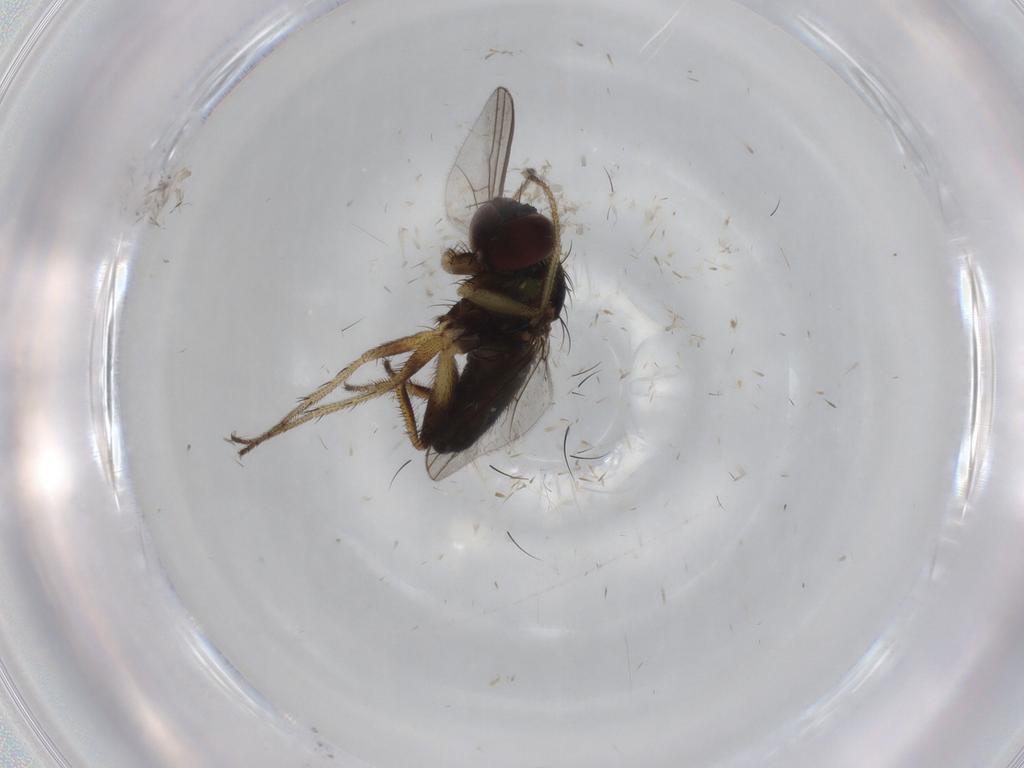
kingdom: Animalia
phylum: Arthropoda
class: Insecta
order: Diptera
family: Dolichopodidae
